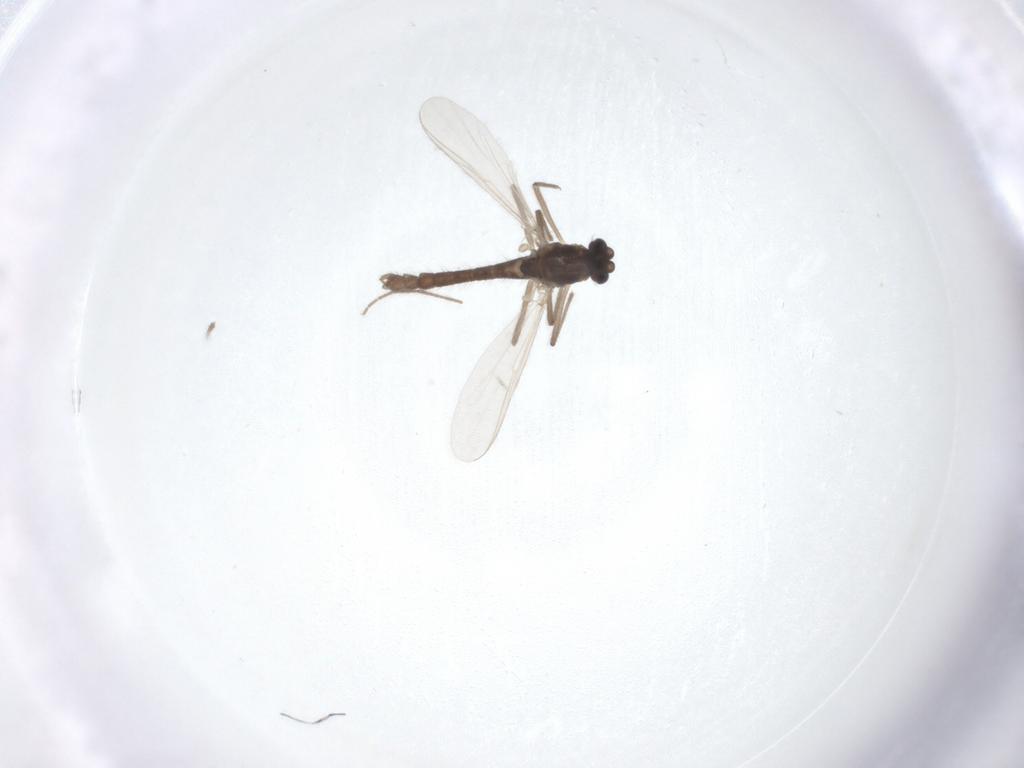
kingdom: Animalia
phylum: Arthropoda
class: Insecta
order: Diptera
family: Chironomidae
